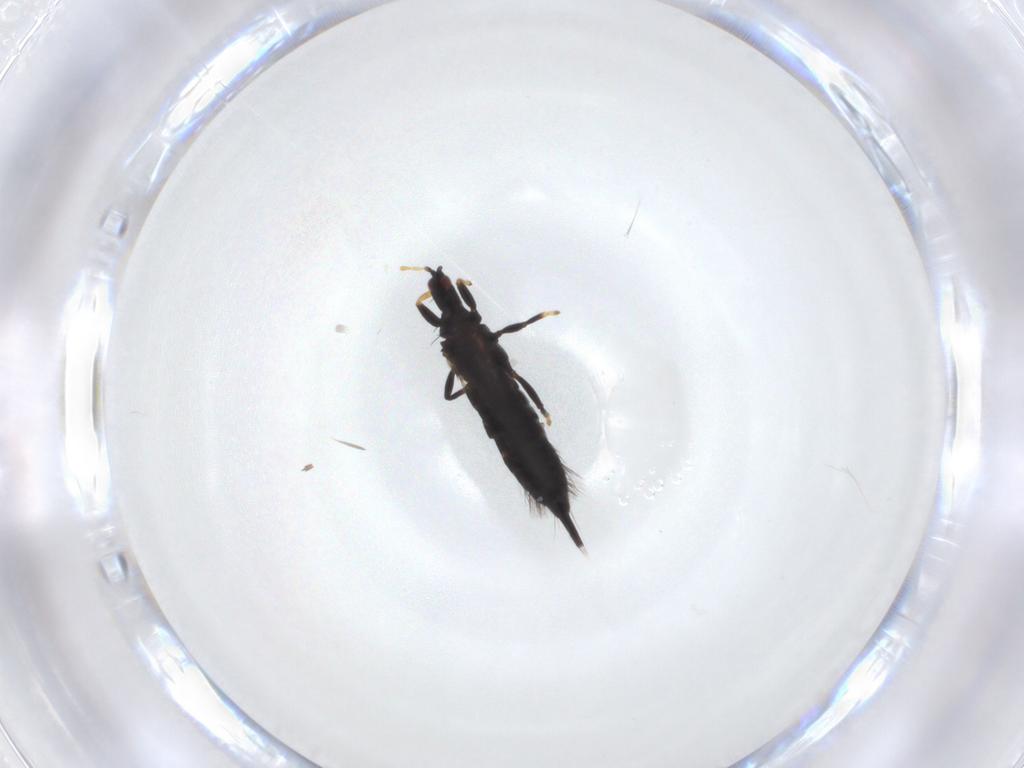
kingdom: Animalia
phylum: Arthropoda
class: Insecta
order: Thysanoptera
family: Phlaeothripidae
